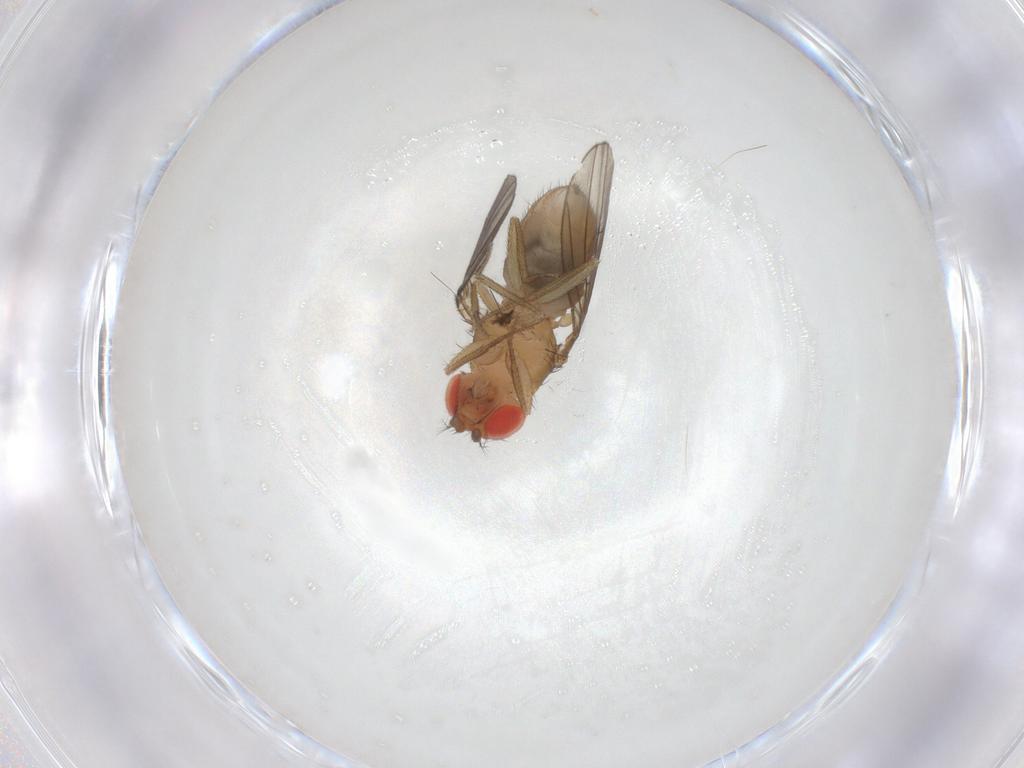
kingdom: Animalia
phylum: Arthropoda
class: Insecta
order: Diptera
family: Drosophilidae
